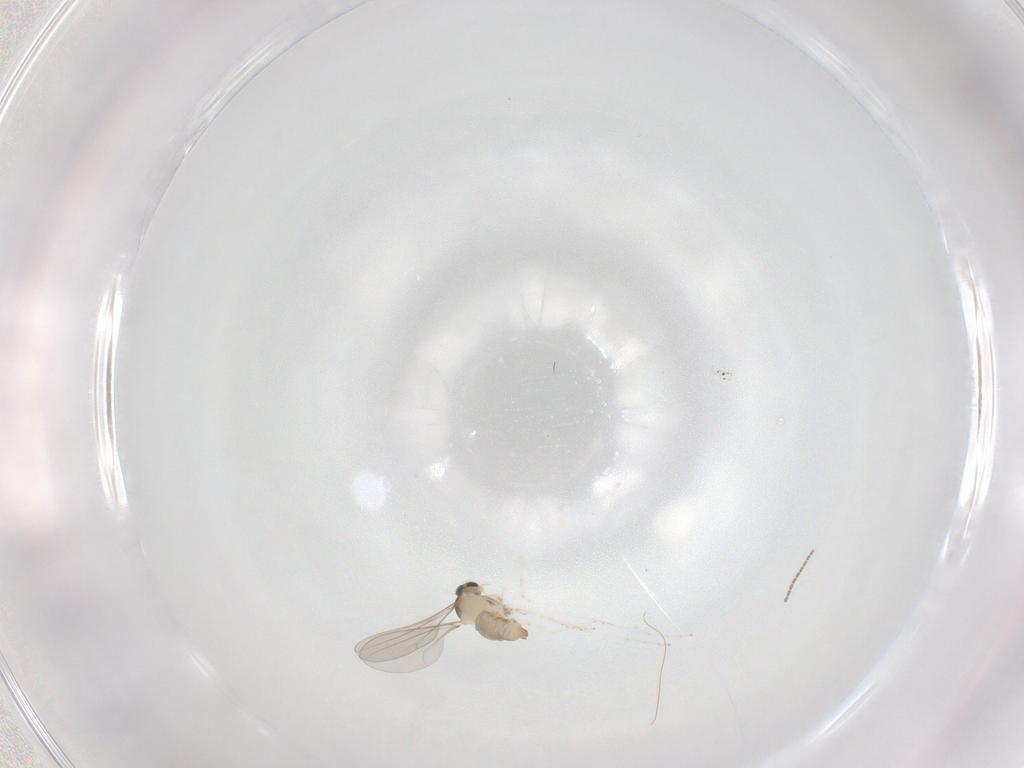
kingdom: Animalia
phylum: Arthropoda
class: Insecta
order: Diptera
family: Cecidomyiidae
